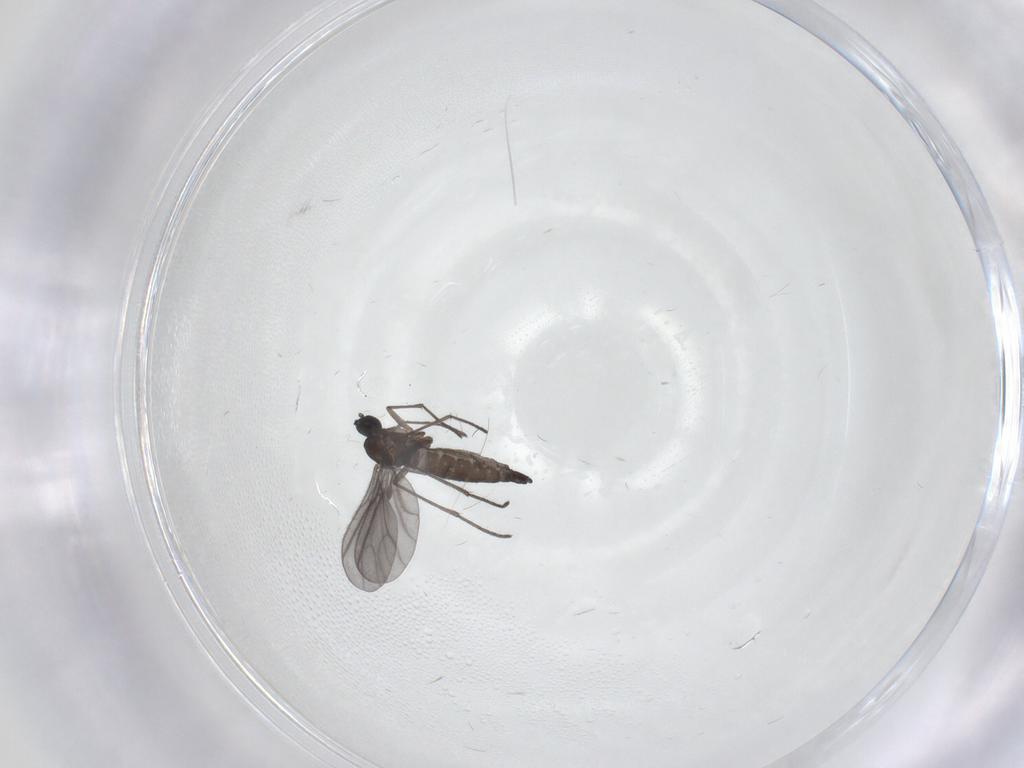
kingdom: Animalia
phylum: Arthropoda
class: Insecta
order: Diptera
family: Sciaridae
